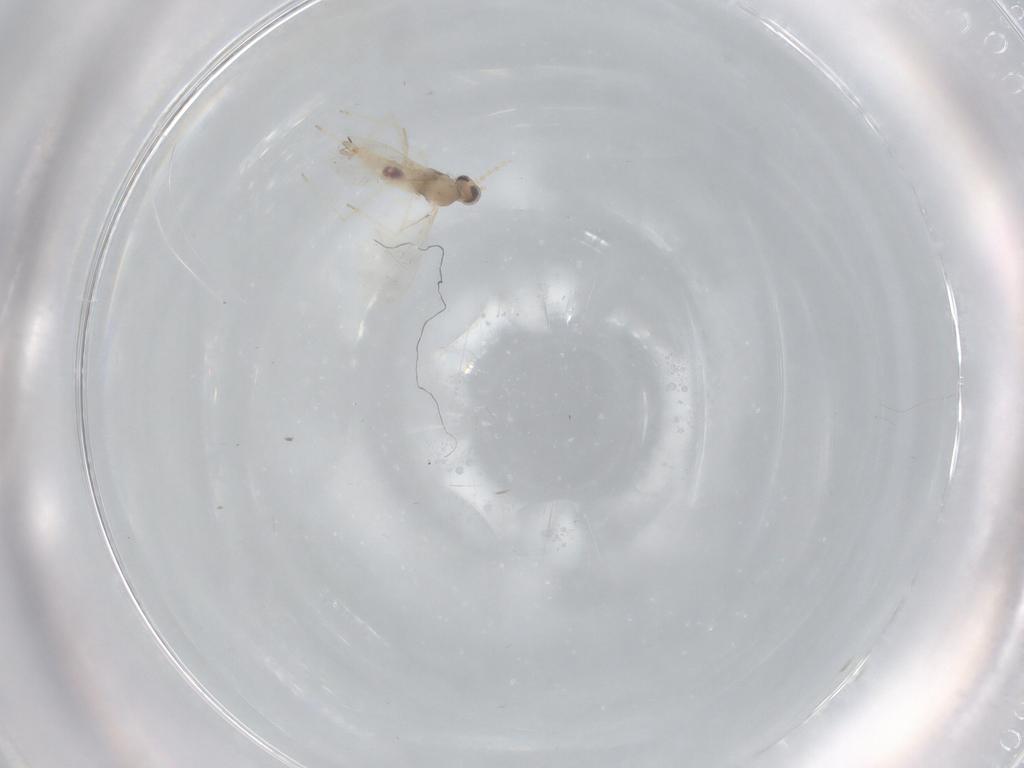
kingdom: Animalia
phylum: Arthropoda
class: Insecta
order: Diptera
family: Cecidomyiidae
